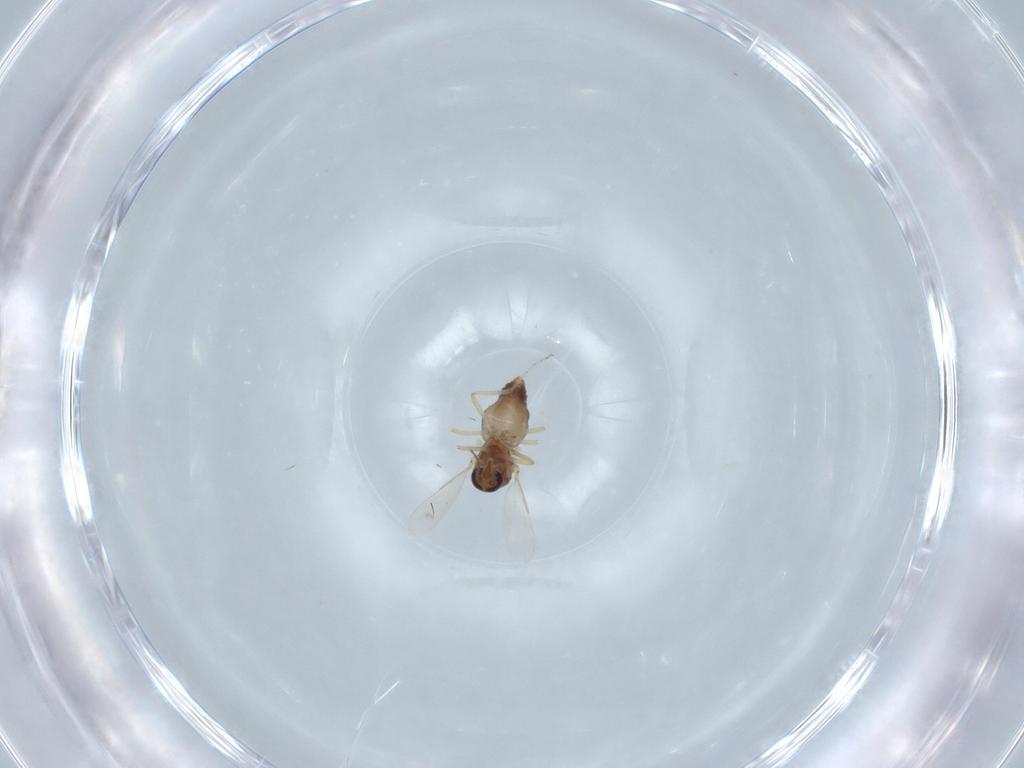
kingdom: Animalia
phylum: Arthropoda
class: Insecta
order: Diptera
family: Ceratopogonidae
